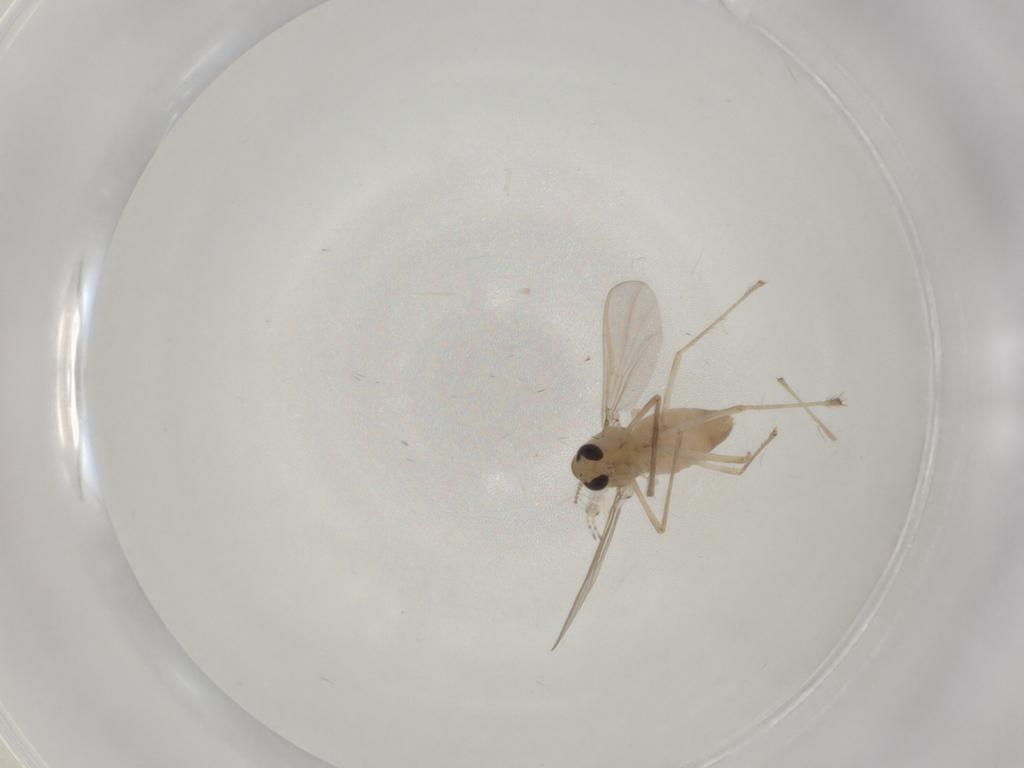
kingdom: Animalia
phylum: Arthropoda
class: Insecta
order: Diptera
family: Chironomidae
